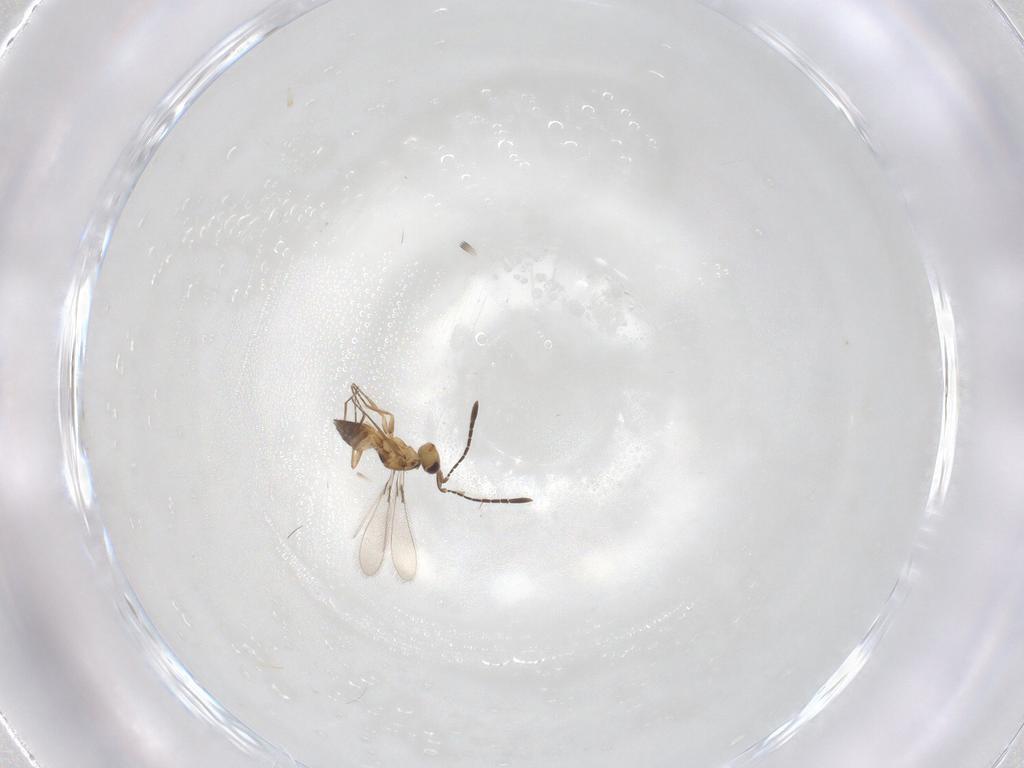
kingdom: Animalia
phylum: Arthropoda
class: Insecta
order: Hymenoptera
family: Mymaridae
